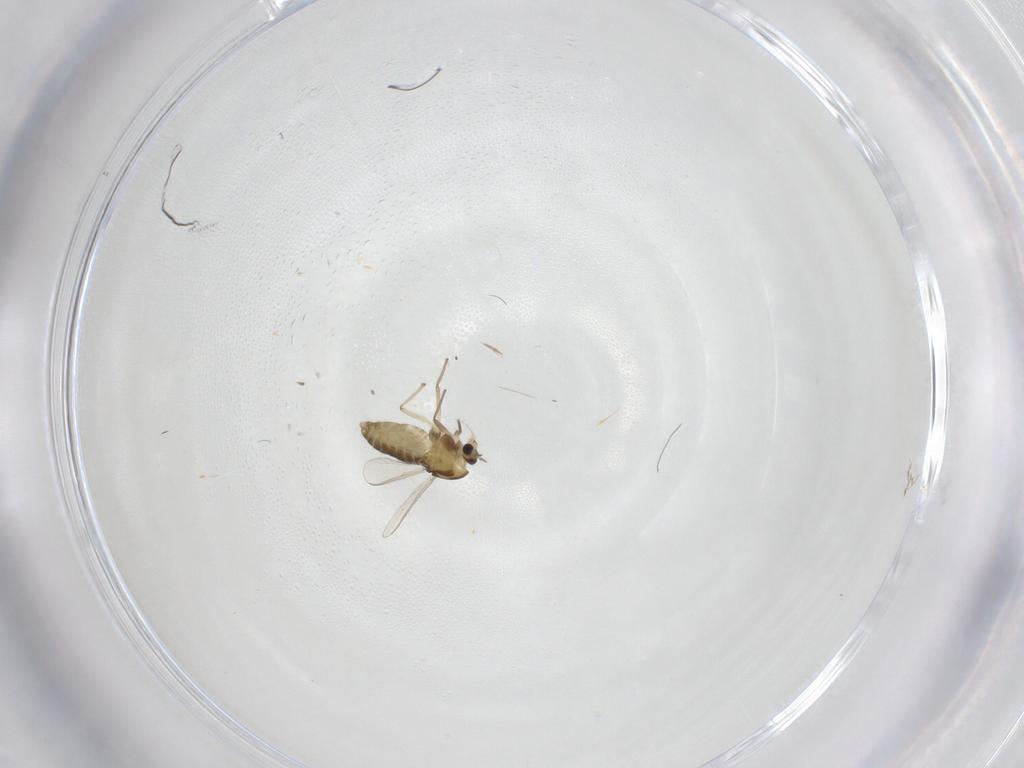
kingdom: Animalia
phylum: Arthropoda
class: Insecta
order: Diptera
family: Chironomidae
